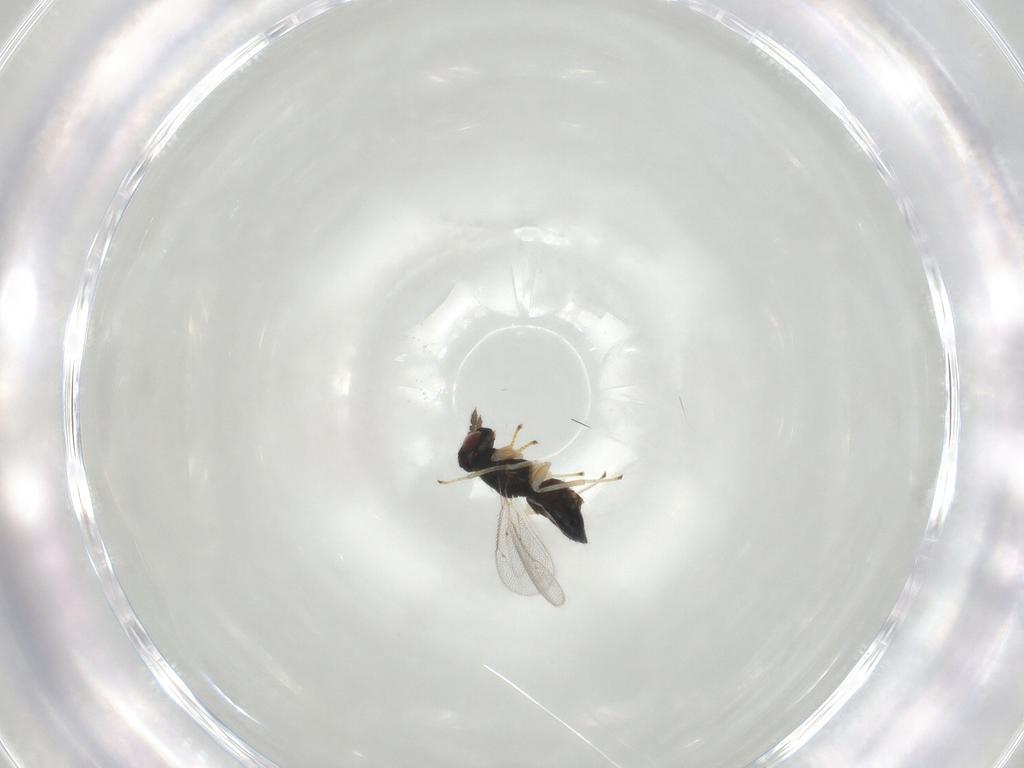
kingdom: Animalia
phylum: Arthropoda
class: Insecta
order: Hymenoptera
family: Eulophidae
